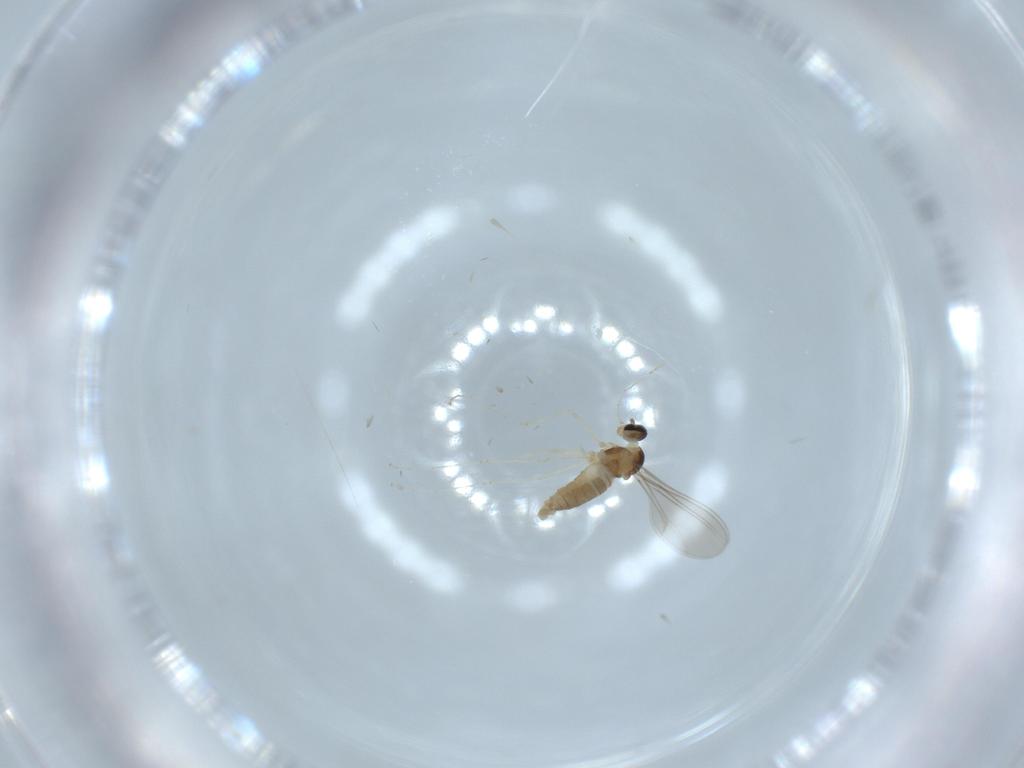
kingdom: Animalia
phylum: Arthropoda
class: Insecta
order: Diptera
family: Cecidomyiidae
